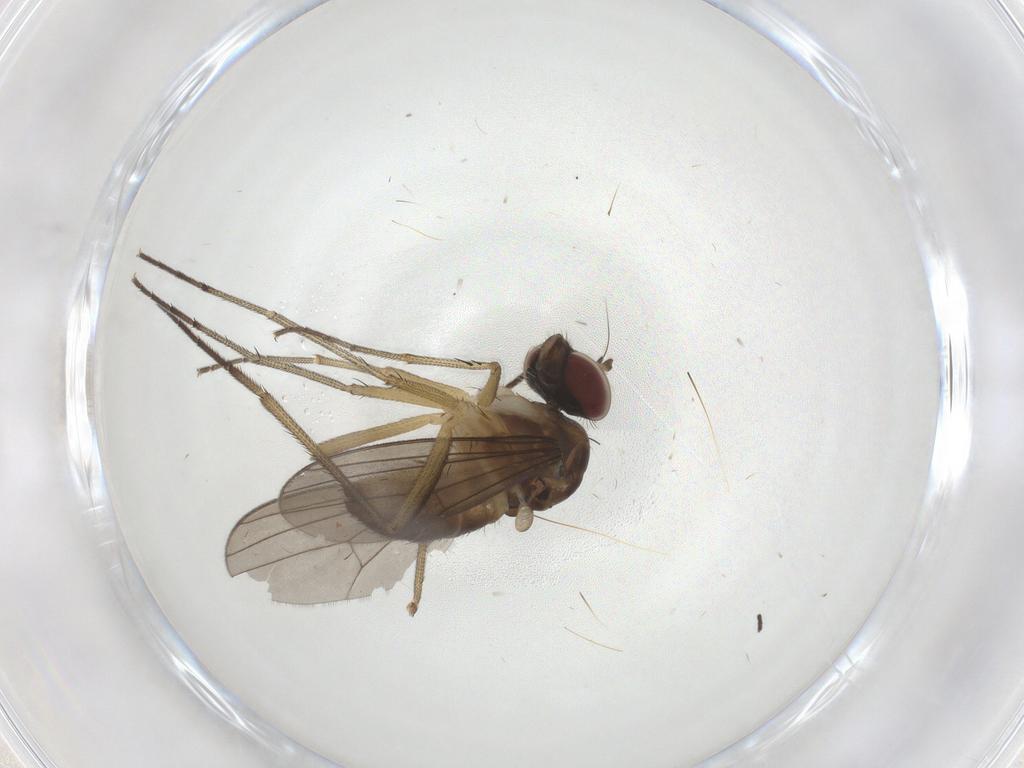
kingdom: Animalia
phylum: Arthropoda
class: Insecta
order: Diptera
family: Dolichopodidae
